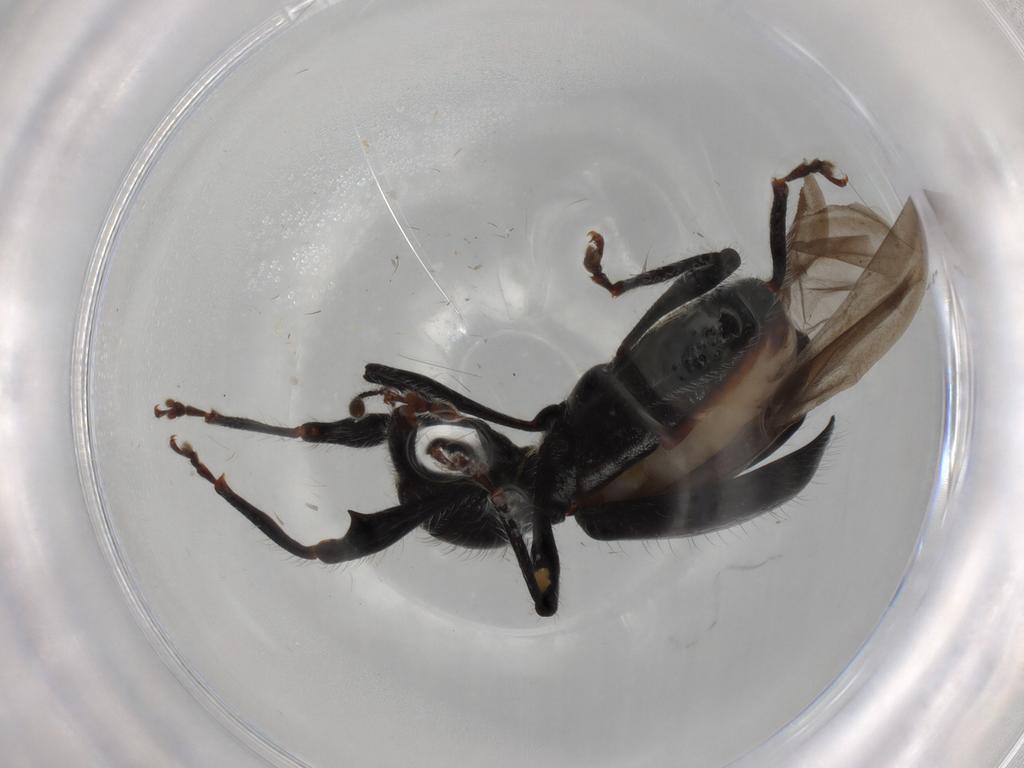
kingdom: Animalia
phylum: Arthropoda
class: Insecta
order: Coleoptera
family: Curculionidae
